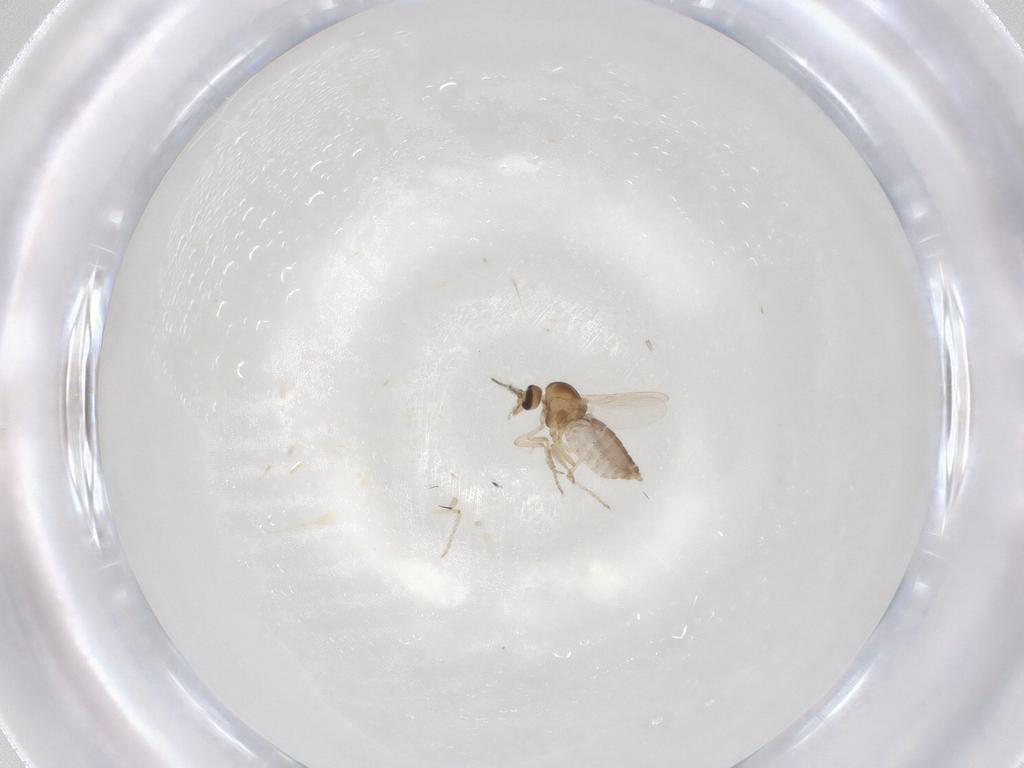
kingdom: Animalia
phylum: Arthropoda
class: Insecta
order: Diptera
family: Ceratopogonidae
